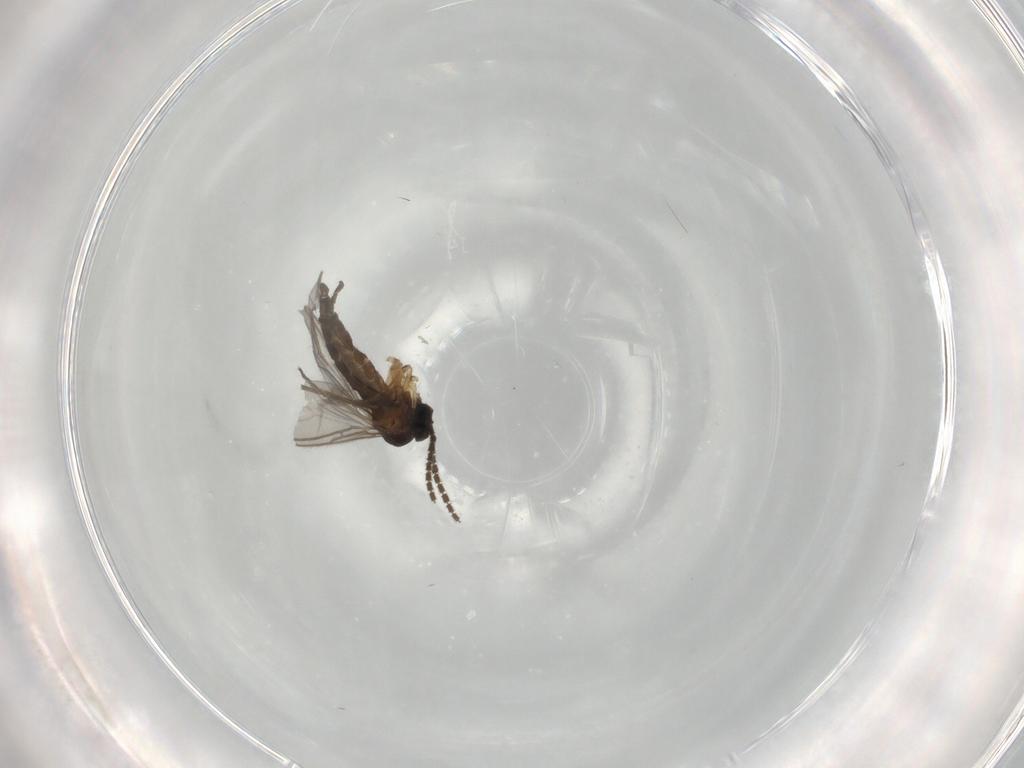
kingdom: Animalia
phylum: Arthropoda
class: Insecta
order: Diptera
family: Sciaridae
